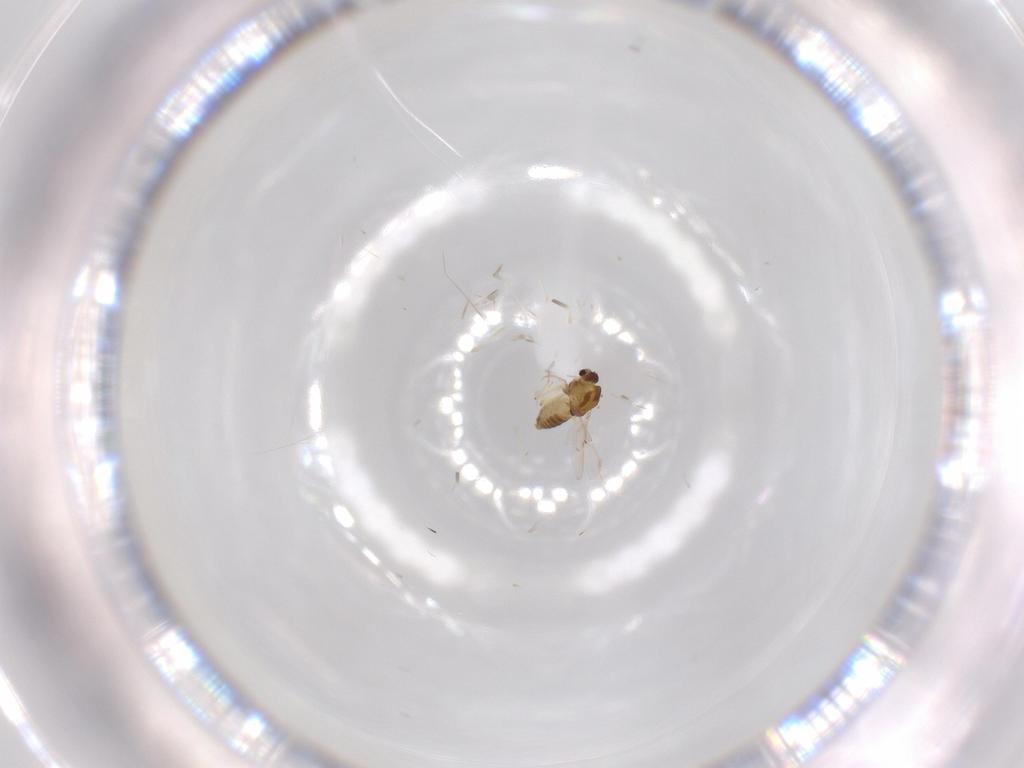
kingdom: Animalia
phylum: Arthropoda
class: Insecta
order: Diptera
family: Chironomidae
